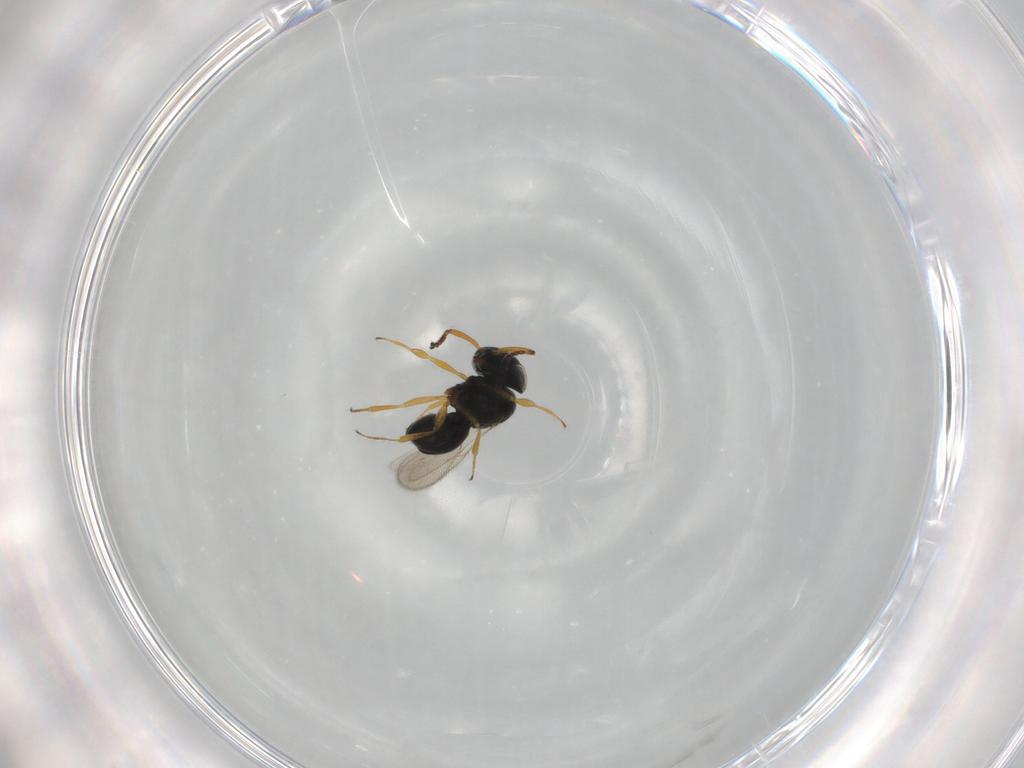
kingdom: Animalia
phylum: Arthropoda
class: Insecta
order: Hymenoptera
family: Scelionidae
